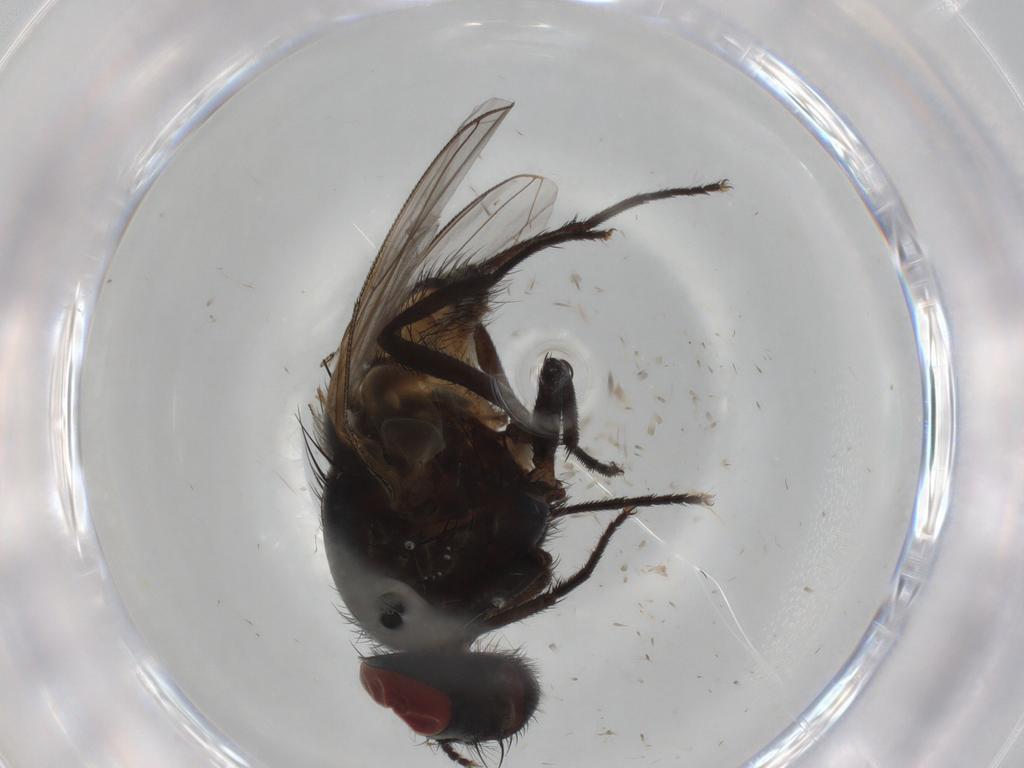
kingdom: Animalia
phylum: Arthropoda
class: Insecta
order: Diptera
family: Muscidae
